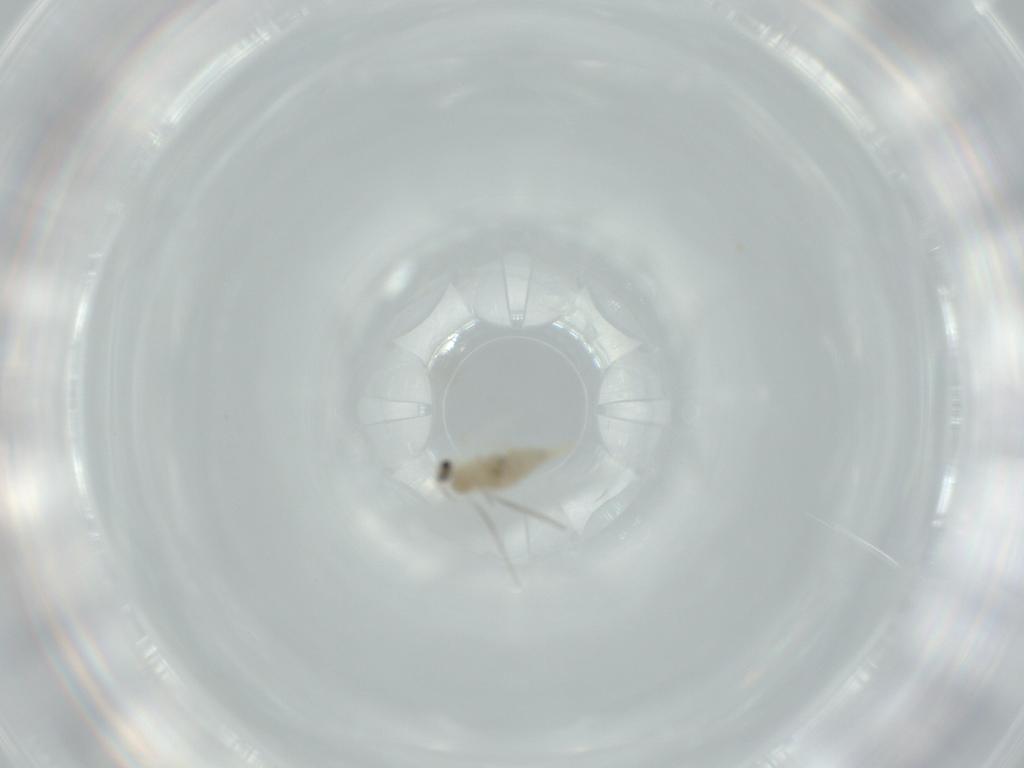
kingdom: Animalia
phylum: Arthropoda
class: Insecta
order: Diptera
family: Cecidomyiidae
